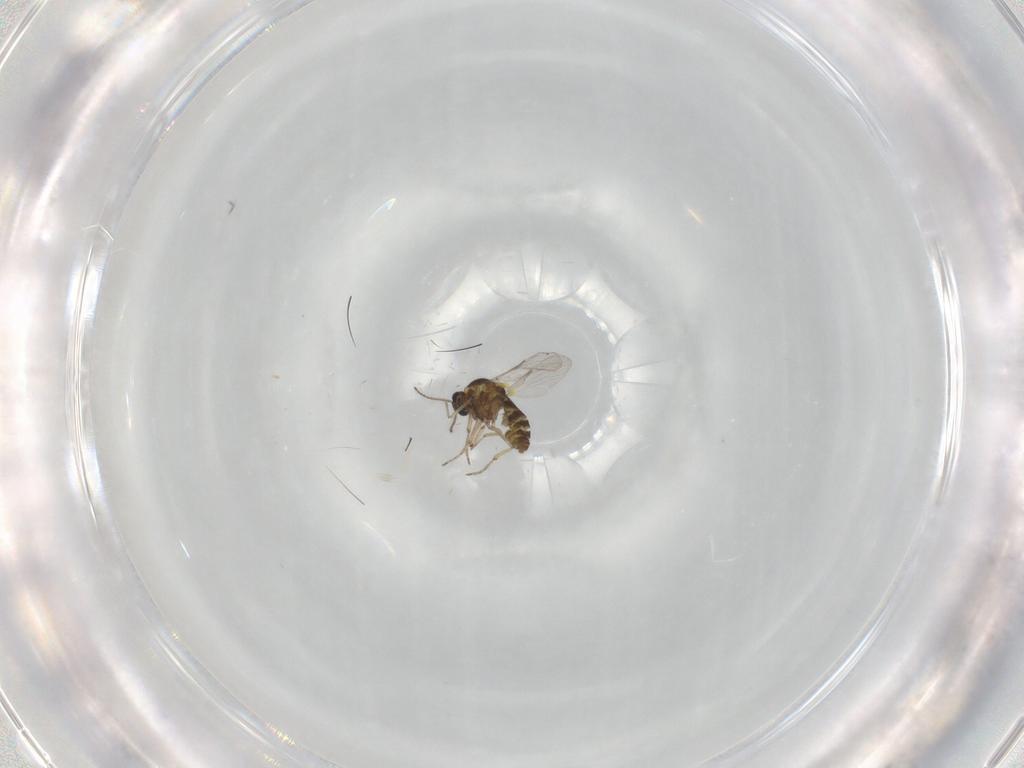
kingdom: Animalia
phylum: Arthropoda
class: Insecta
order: Diptera
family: Ceratopogonidae
